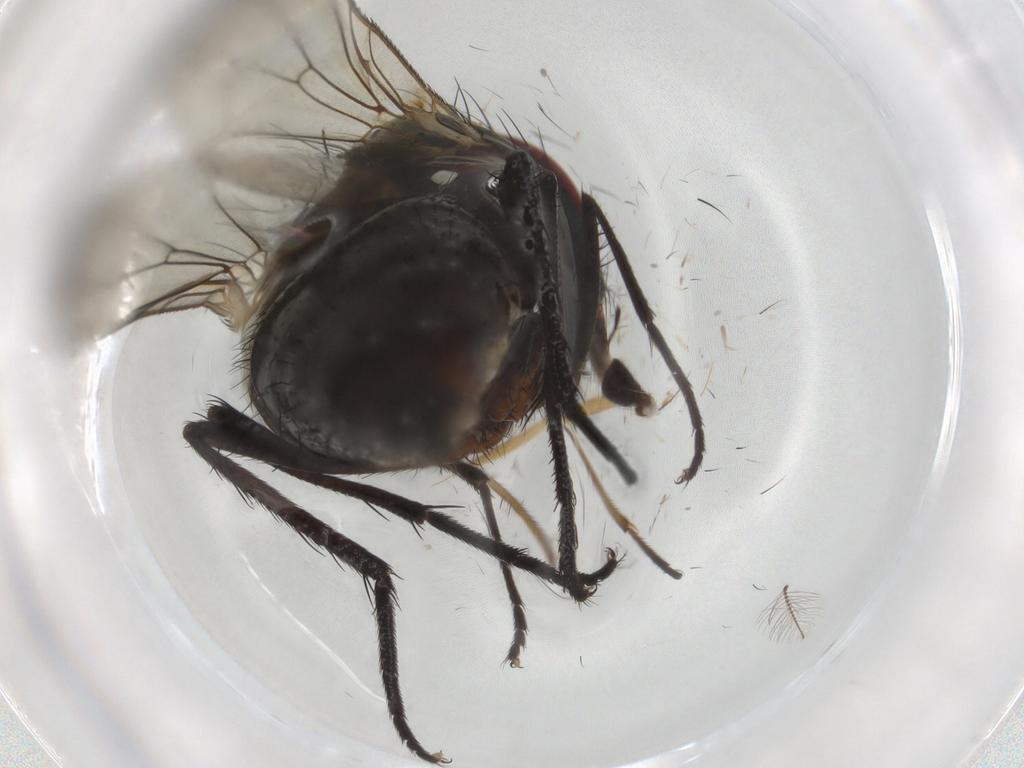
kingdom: Animalia
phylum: Arthropoda
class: Insecta
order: Diptera
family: Anthomyiidae
